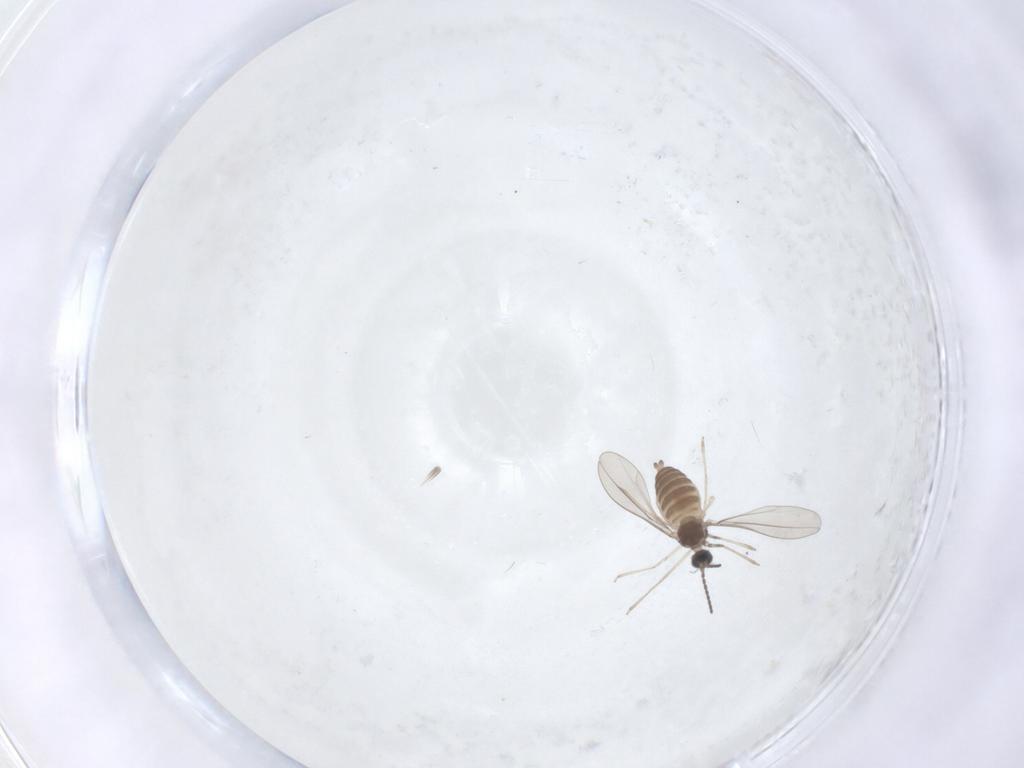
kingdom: Animalia
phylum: Arthropoda
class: Insecta
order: Diptera
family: Cecidomyiidae
